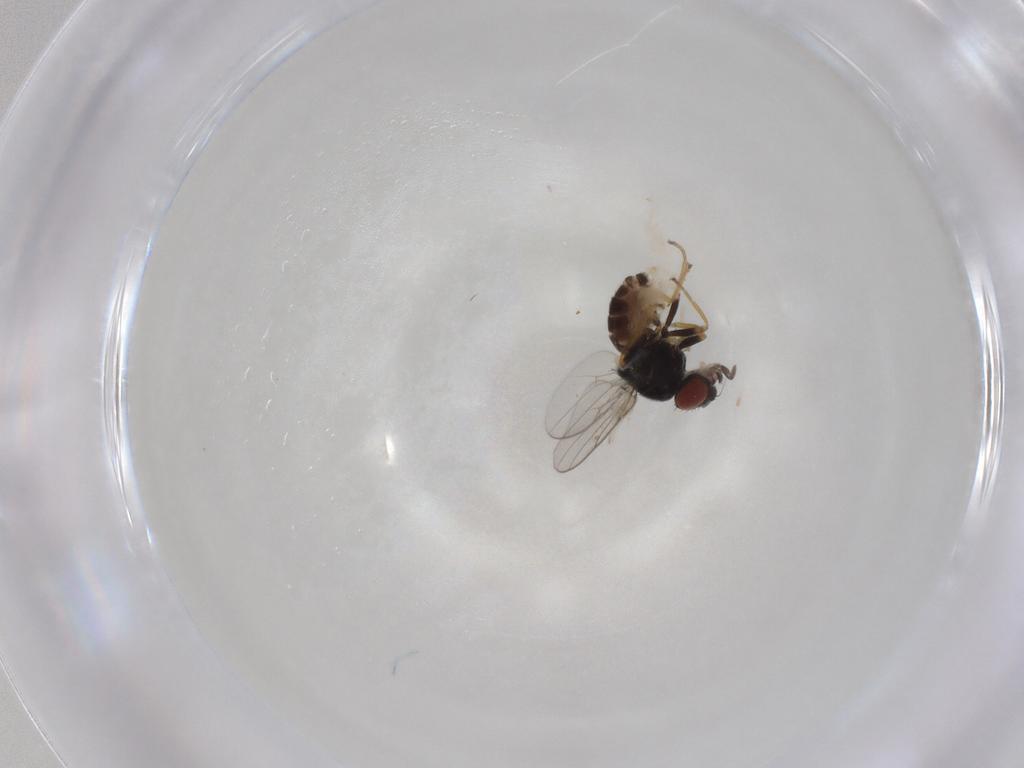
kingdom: Animalia
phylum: Arthropoda
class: Insecta
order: Diptera
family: Chloropidae
